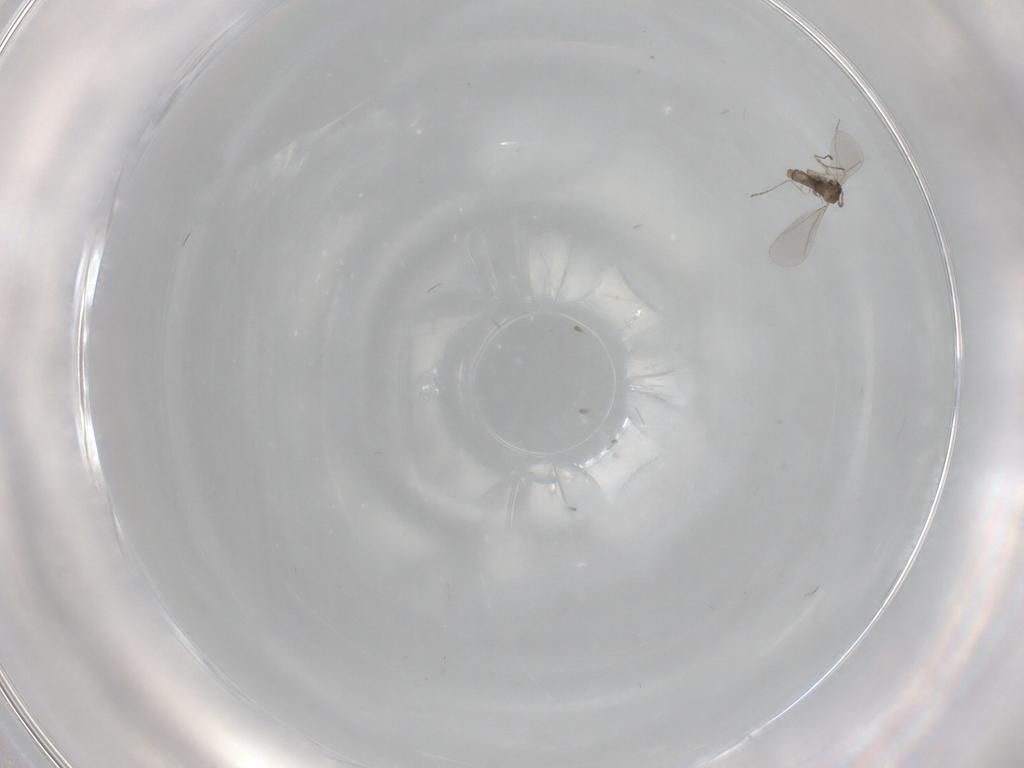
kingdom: Animalia
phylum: Arthropoda
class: Insecta
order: Diptera
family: Cecidomyiidae
